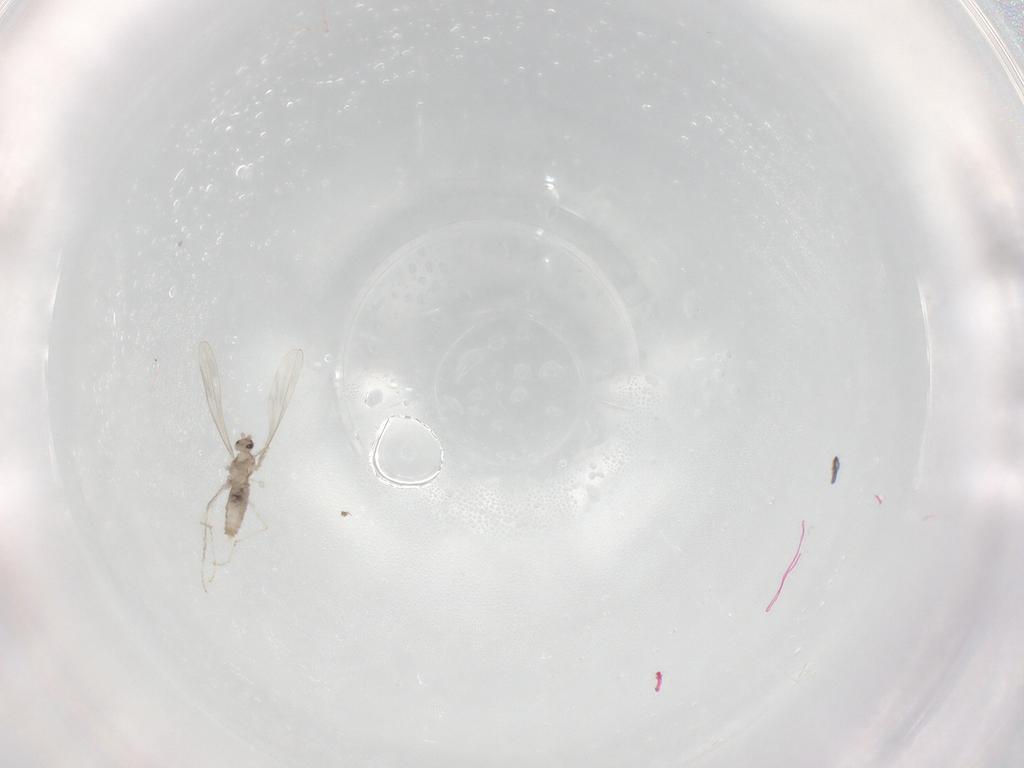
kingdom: Animalia
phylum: Arthropoda
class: Insecta
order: Diptera
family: Cecidomyiidae
